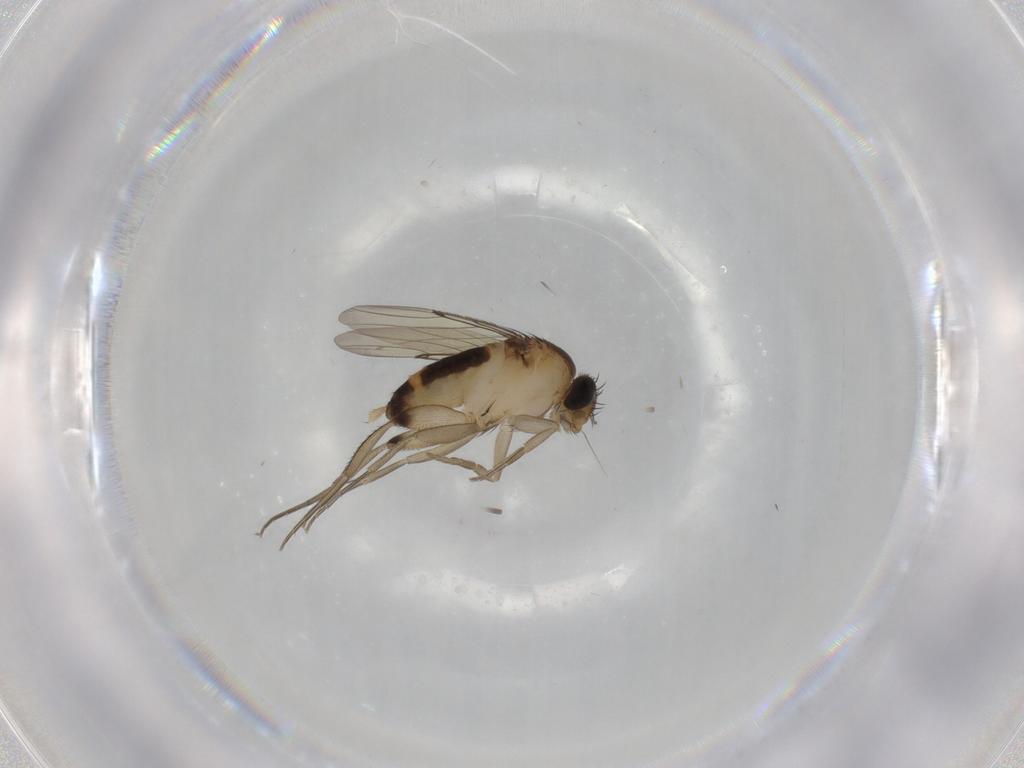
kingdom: Animalia
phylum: Arthropoda
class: Insecta
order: Diptera
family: Phoridae
